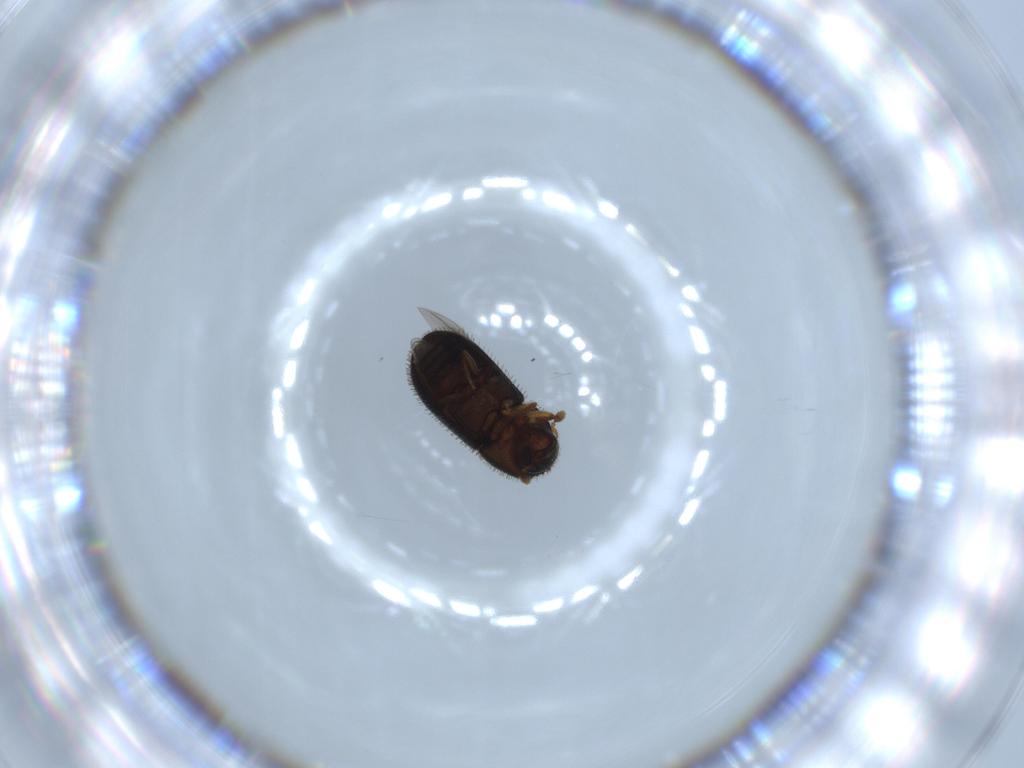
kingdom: Animalia
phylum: Arthropoda
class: Insecta
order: Coleoptera
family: Curculionidae
